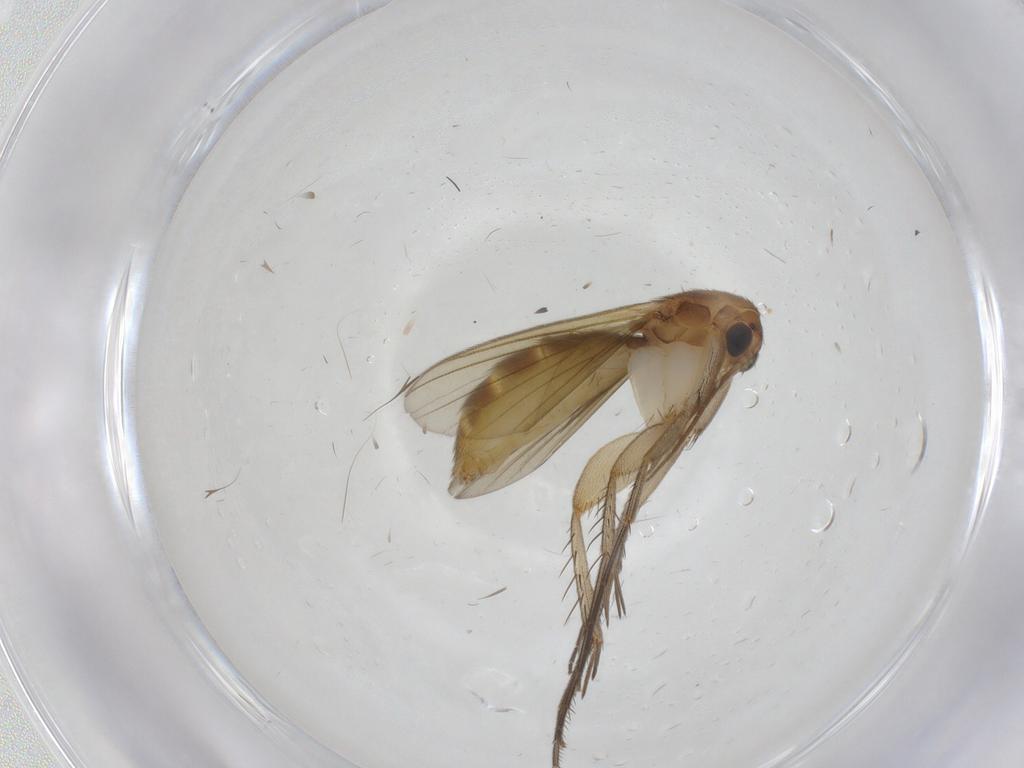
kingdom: Animalia
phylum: Arthropoda
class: Insecta
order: Diptera
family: Mycetophilidae
